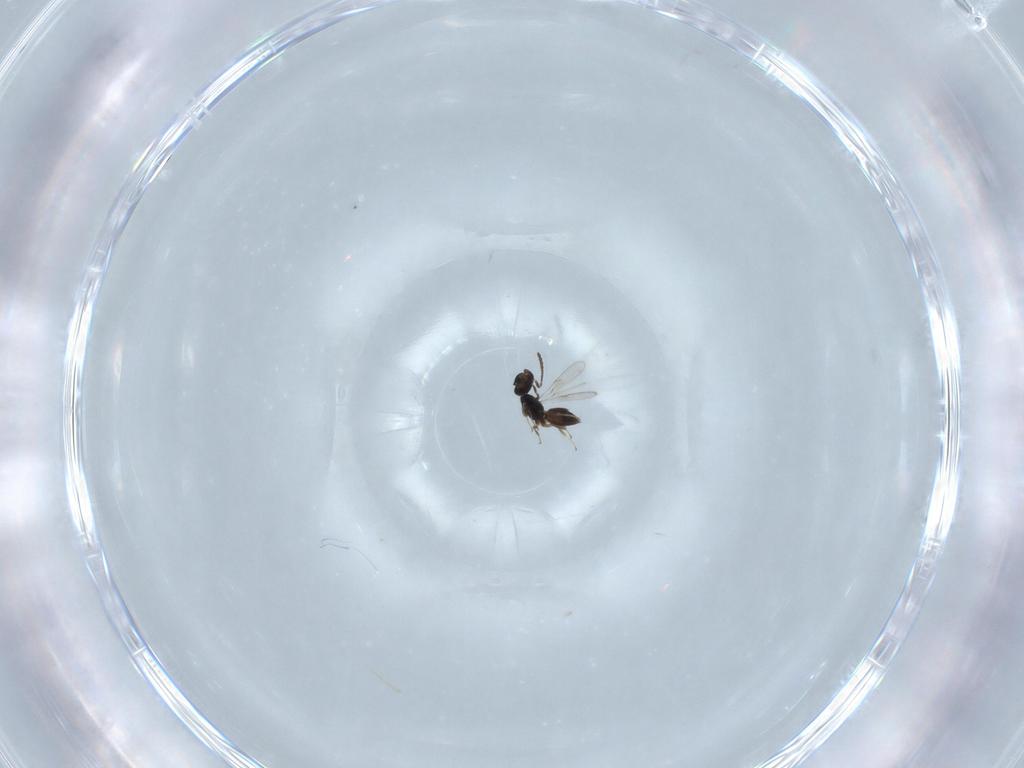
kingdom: Animalia
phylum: Arthropoda
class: Insecta
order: Hymenoptera
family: Scelionidae
